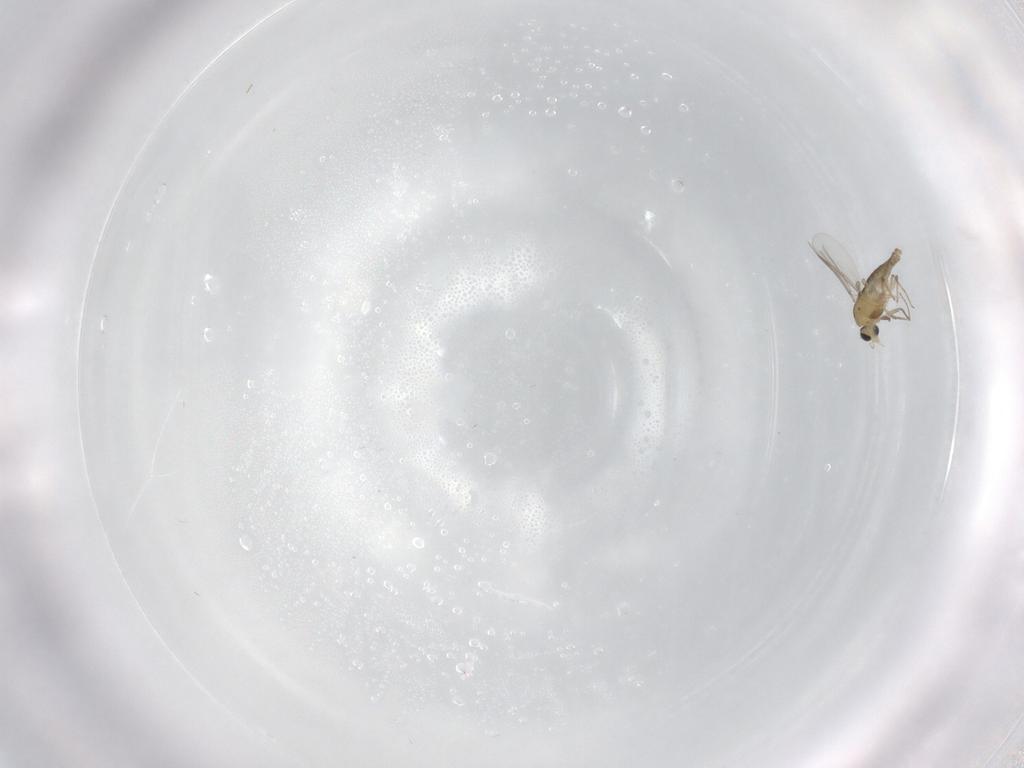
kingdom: Animalia
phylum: Arthropoda
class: Insecta
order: Diptera
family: Chironomidae
